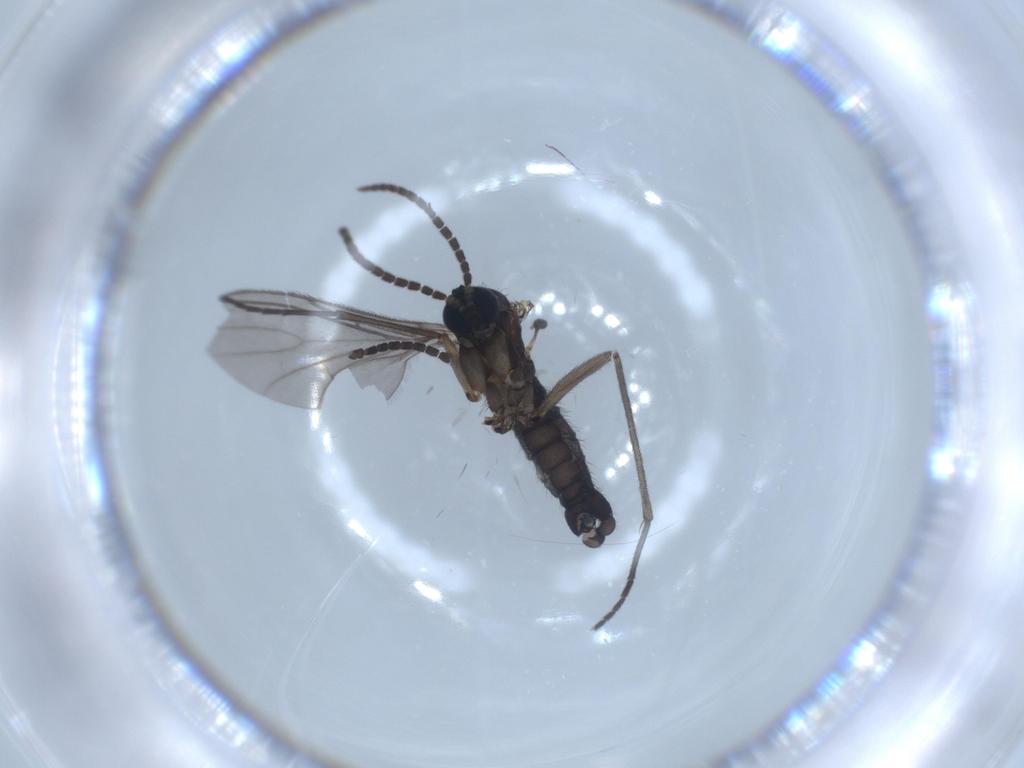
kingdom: Animalia
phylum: Arthropoda
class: Insecta
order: Diptera
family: Sciaridae
